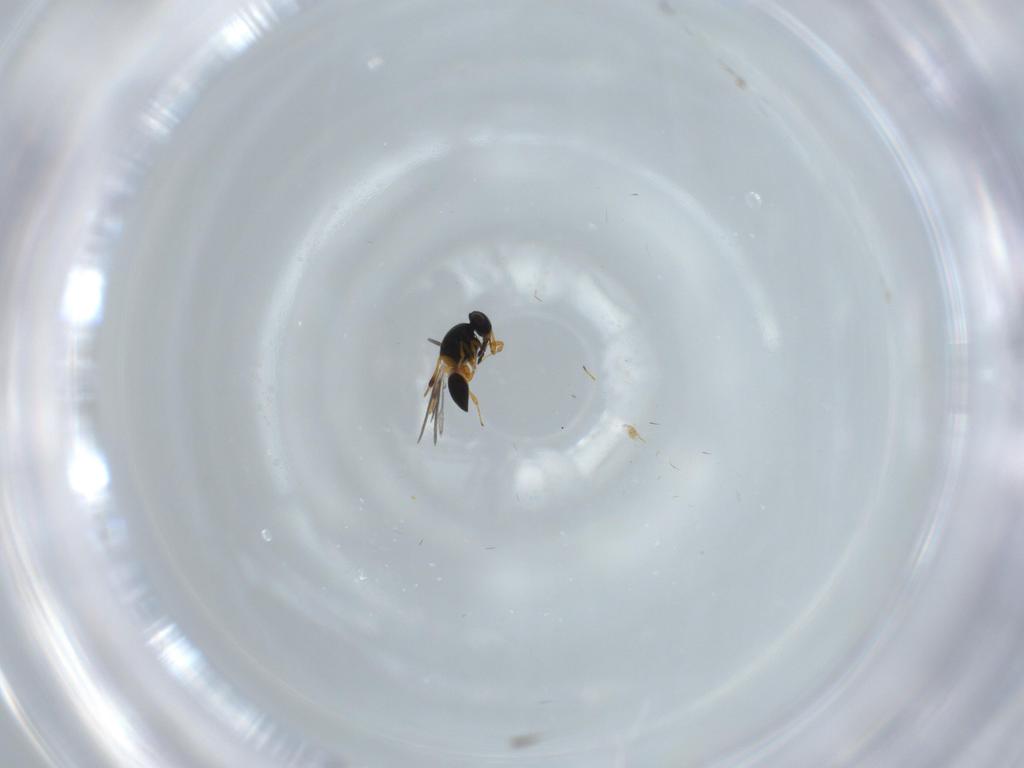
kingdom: Animalia
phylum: Arthropoda
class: Insecta
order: Hymenoptera
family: Platygastridae
